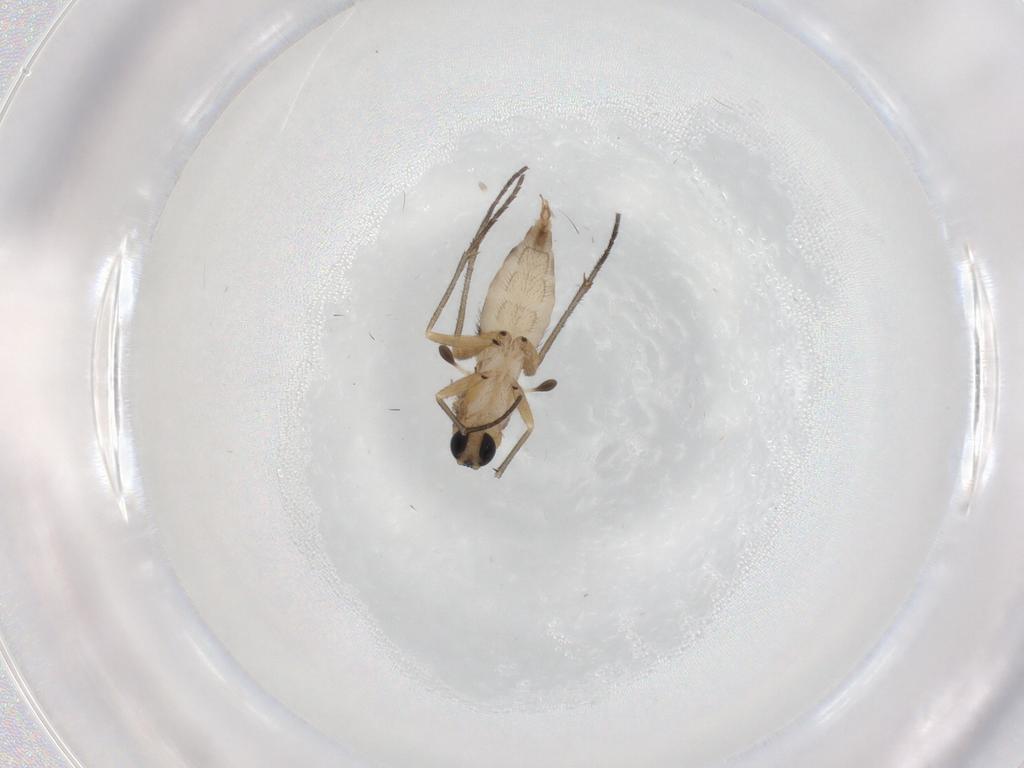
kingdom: Animalia
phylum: Arthropoda
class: Insecta
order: Diptera
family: Sciaridae
